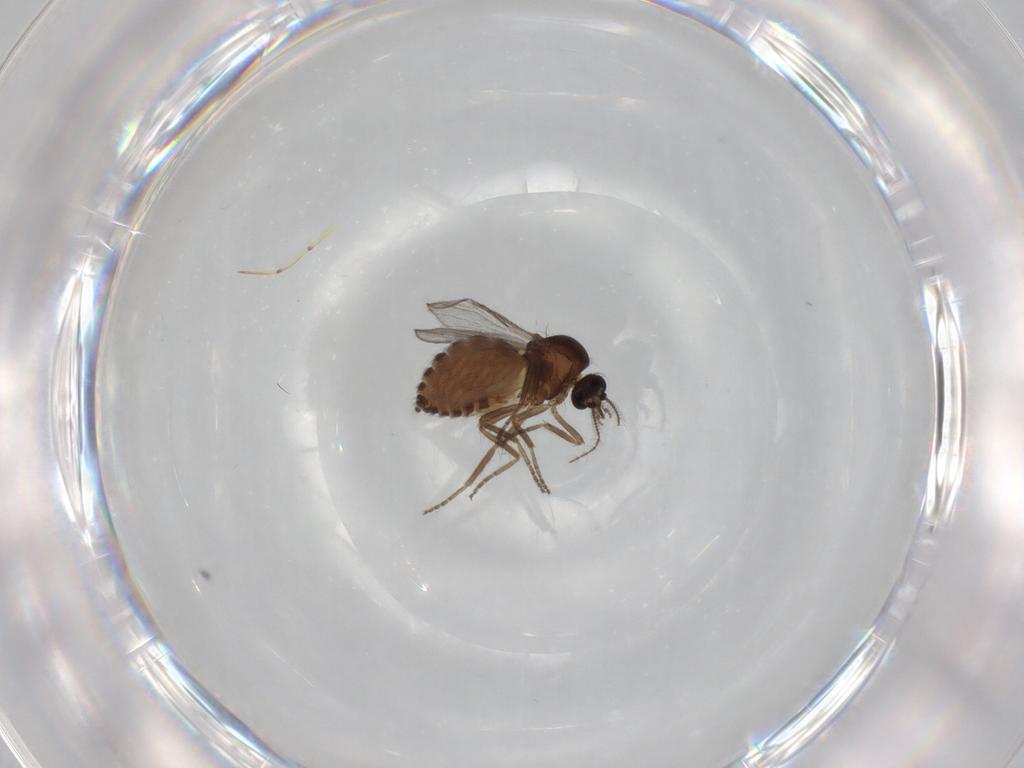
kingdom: Animalia
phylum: Arthropoda
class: Insecta
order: Diptera
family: Ceratopogonidae
